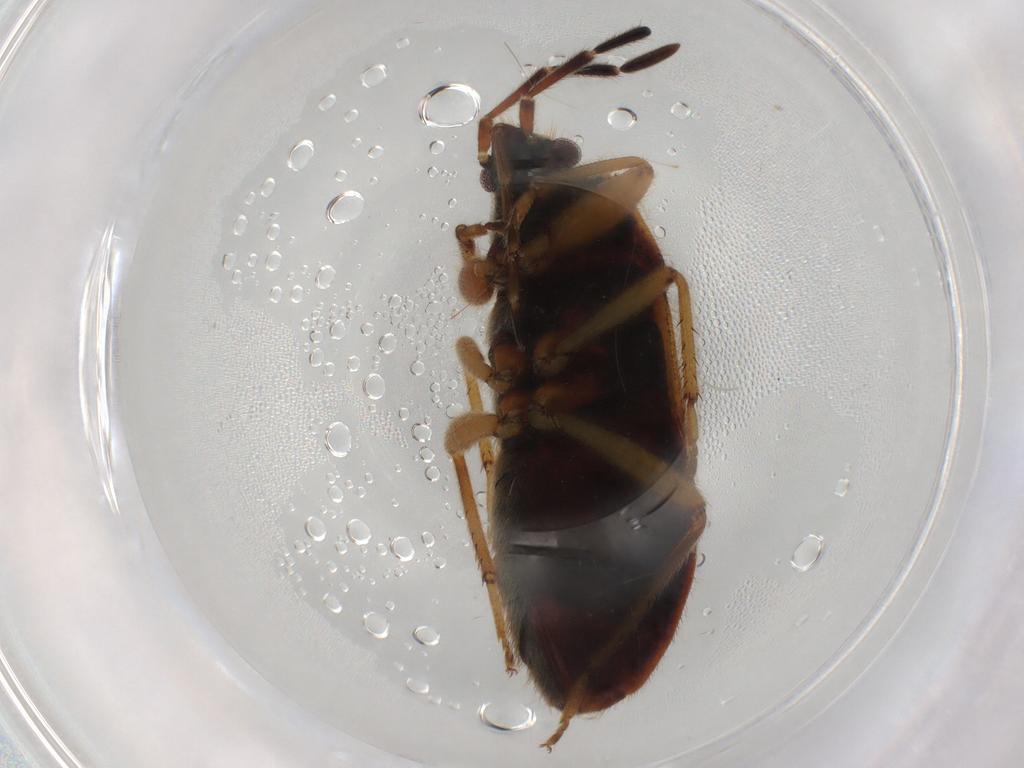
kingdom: Animalia
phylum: Arthropoda
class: Insecta
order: Hemiptera
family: Rhyparochromidae
